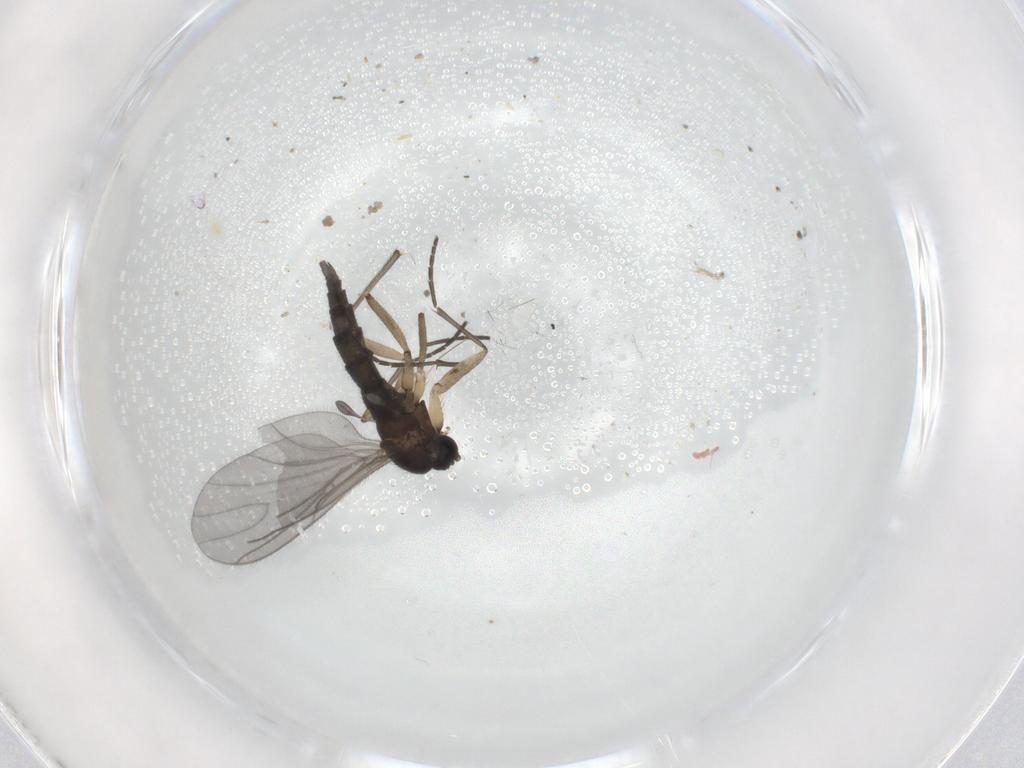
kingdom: Animalia
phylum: Arthropoda
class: Insecta
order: Diptera
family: Sciaridae
